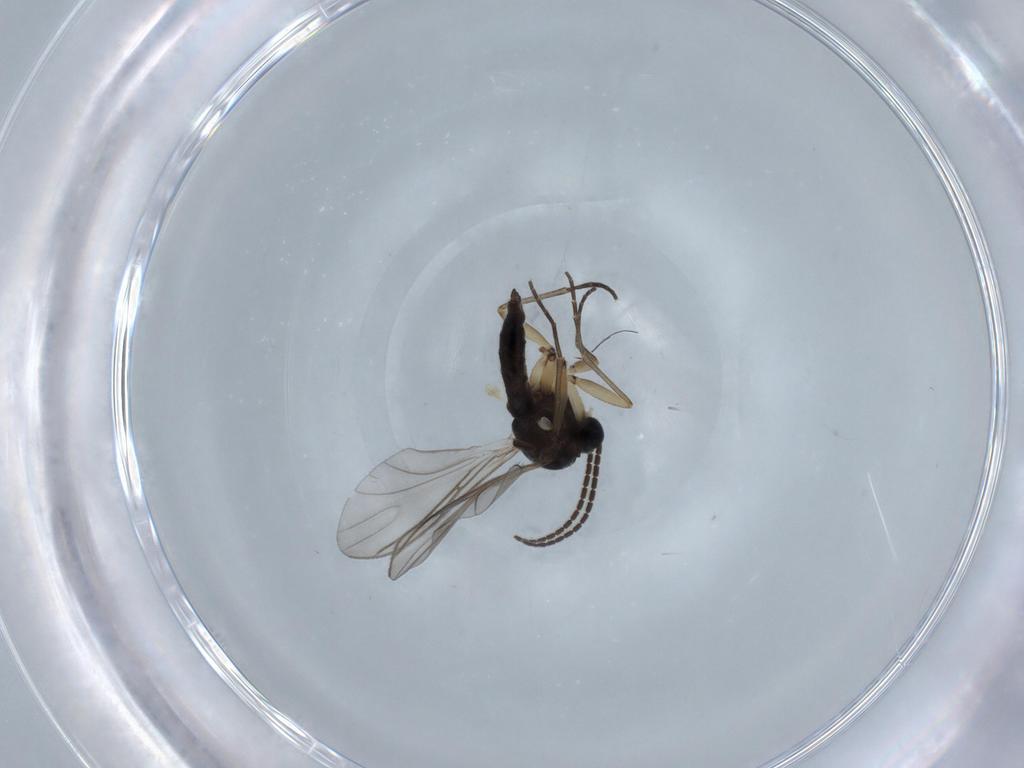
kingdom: Animalia
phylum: Arthropoda
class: Insecta
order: Diptera
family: Sciaridae
